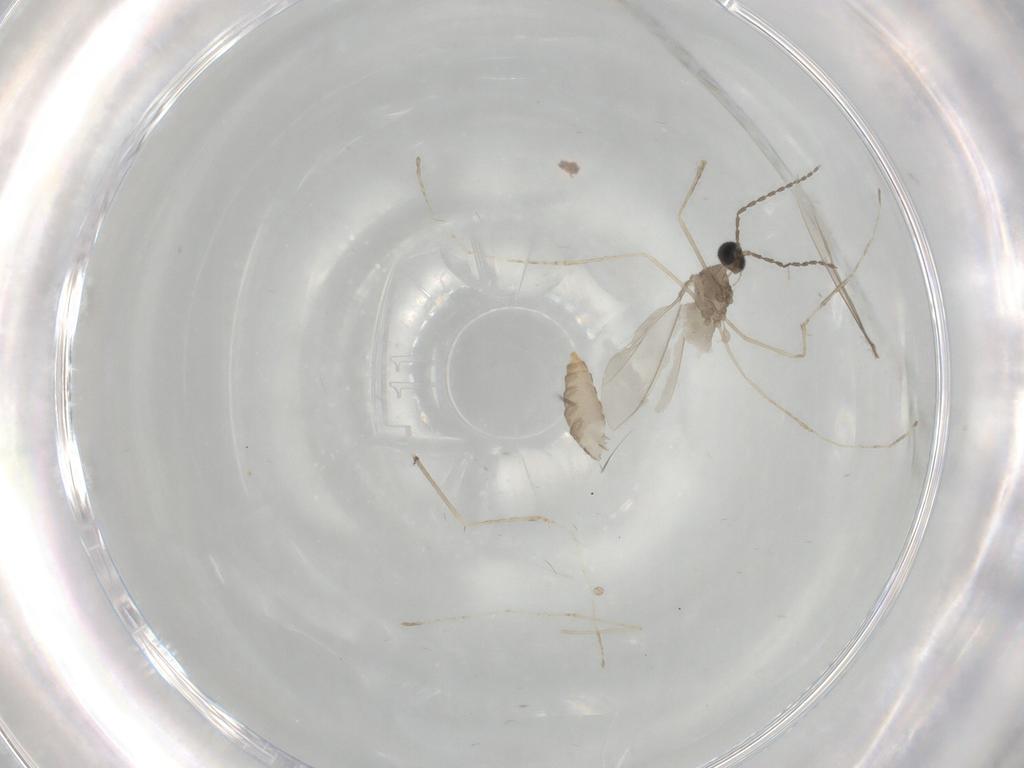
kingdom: Animalia
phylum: Arthropoda
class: Insecta
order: Diptera
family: Cecidomyiidae
